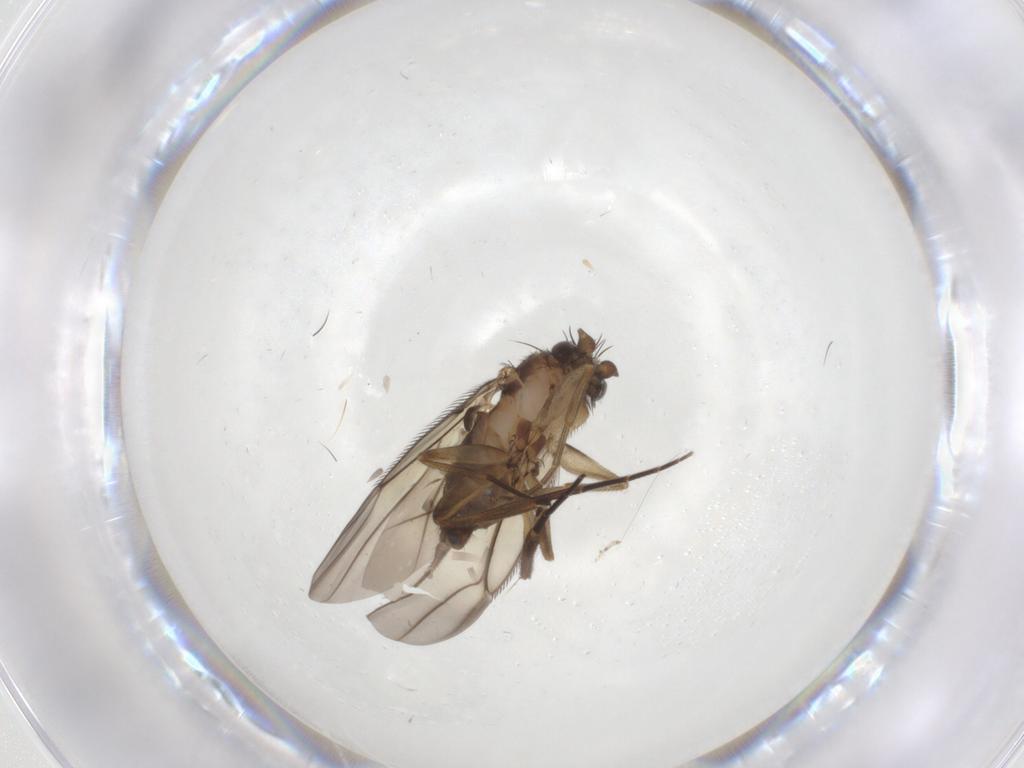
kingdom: Animalia
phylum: Arthropoda
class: Insecta
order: Diptera
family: Phoridae
